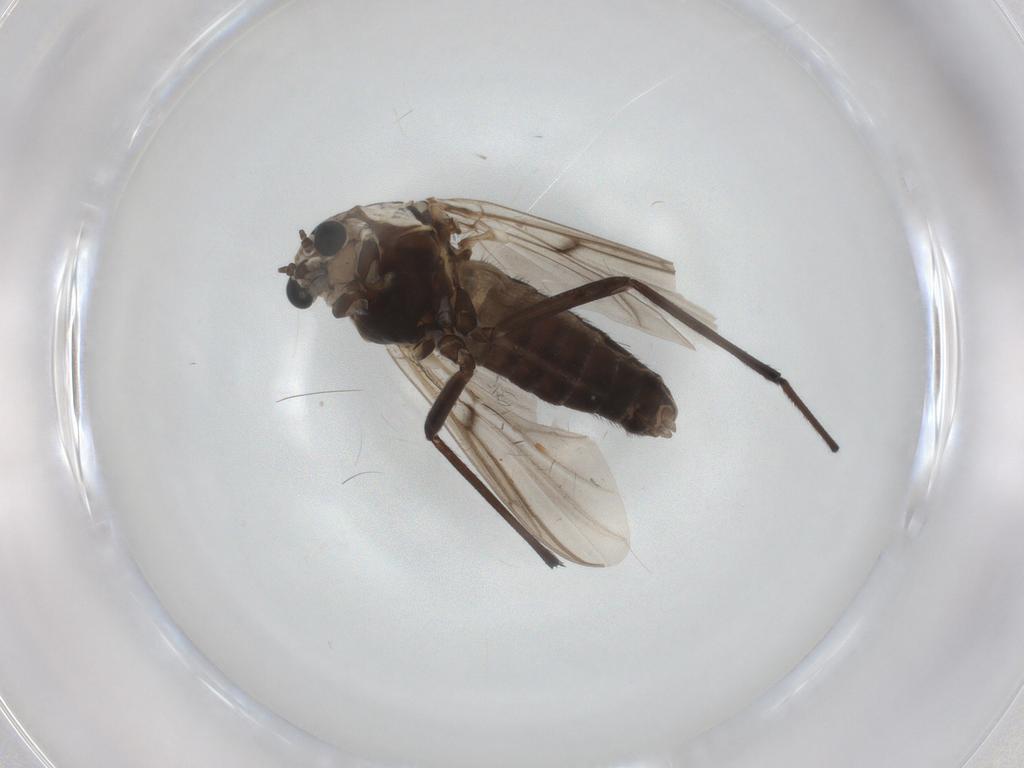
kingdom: Animalia
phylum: Arthropoda
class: Insecta
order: Diptera
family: Chironomidae
